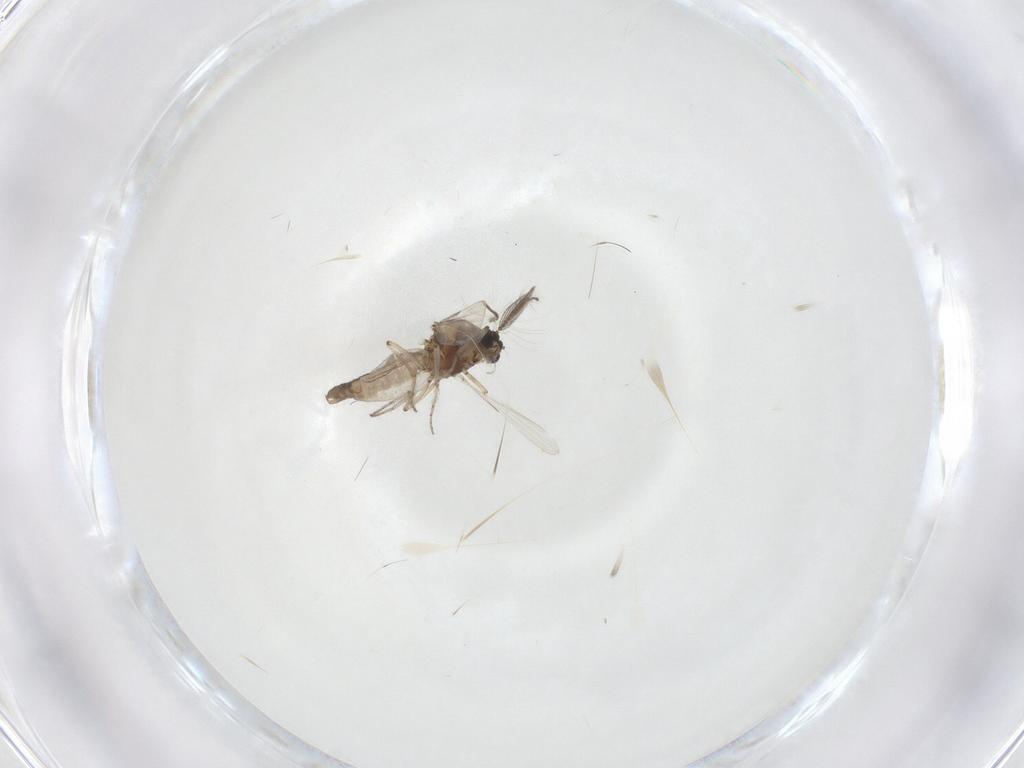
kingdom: Animalia
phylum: Arthropoda
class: Insecta
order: Diptera
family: Ceratopogonidae
